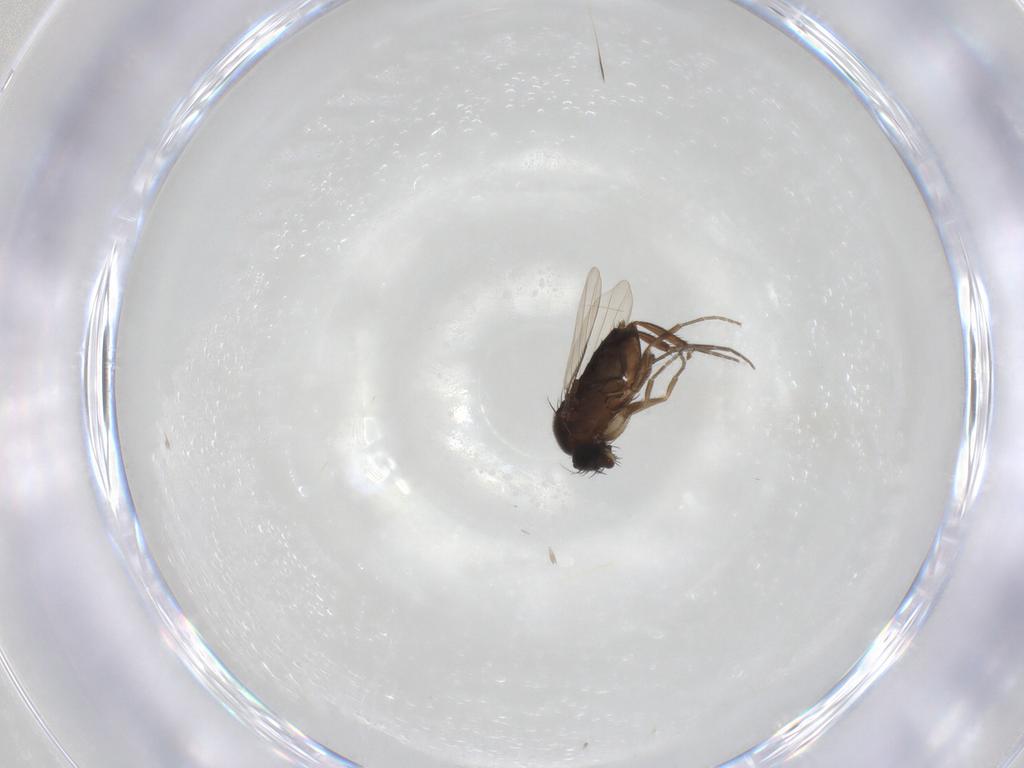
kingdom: Animalia
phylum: Arthropoda
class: Insecta
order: Diptera
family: Phoridae
